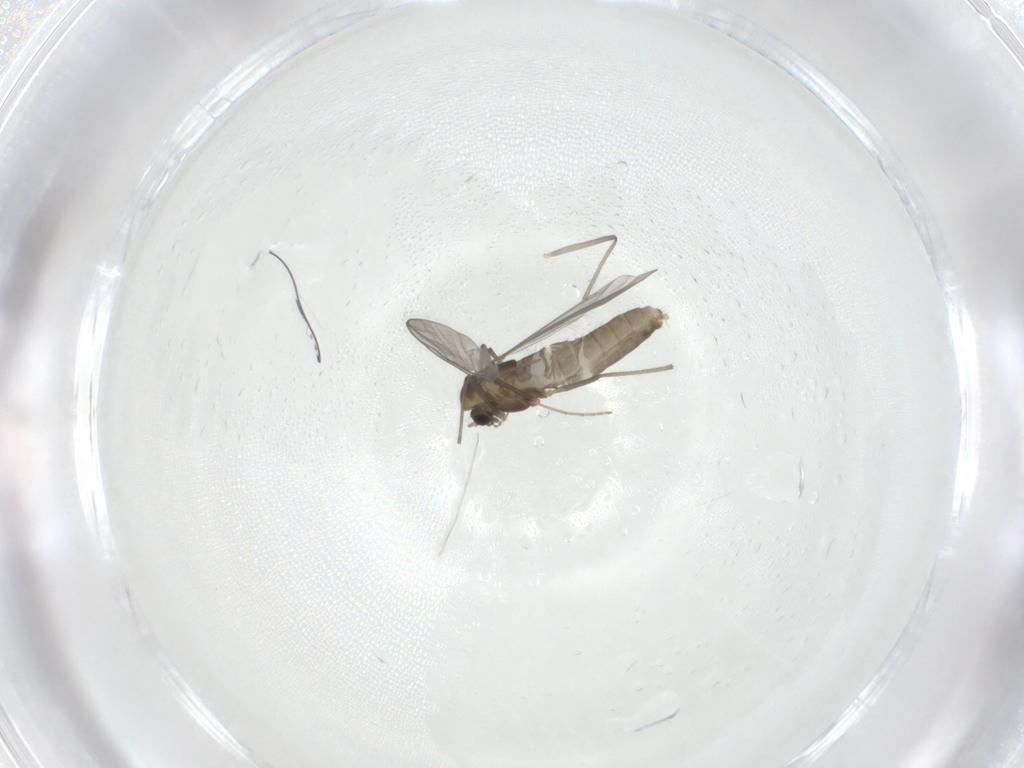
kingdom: Animalia
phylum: Arthropoda
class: Insecta
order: Diptera
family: Chironomidae
